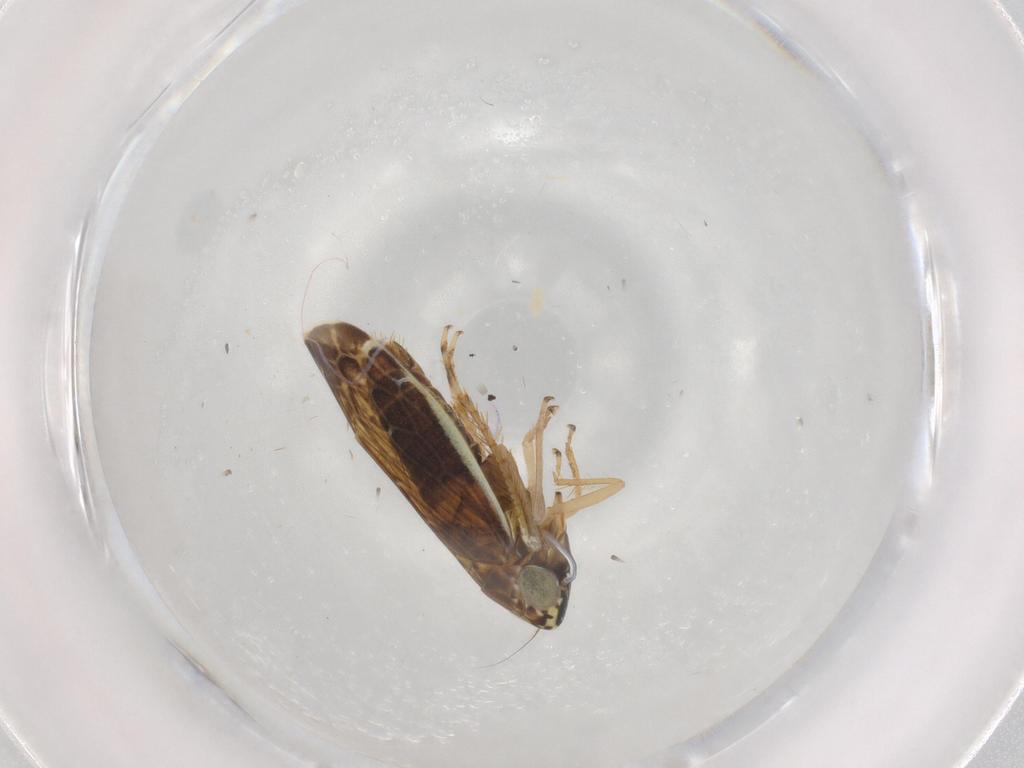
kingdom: Animalia
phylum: Arthropoda
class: Insecta
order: Hemiptera
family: Cicadellidae
